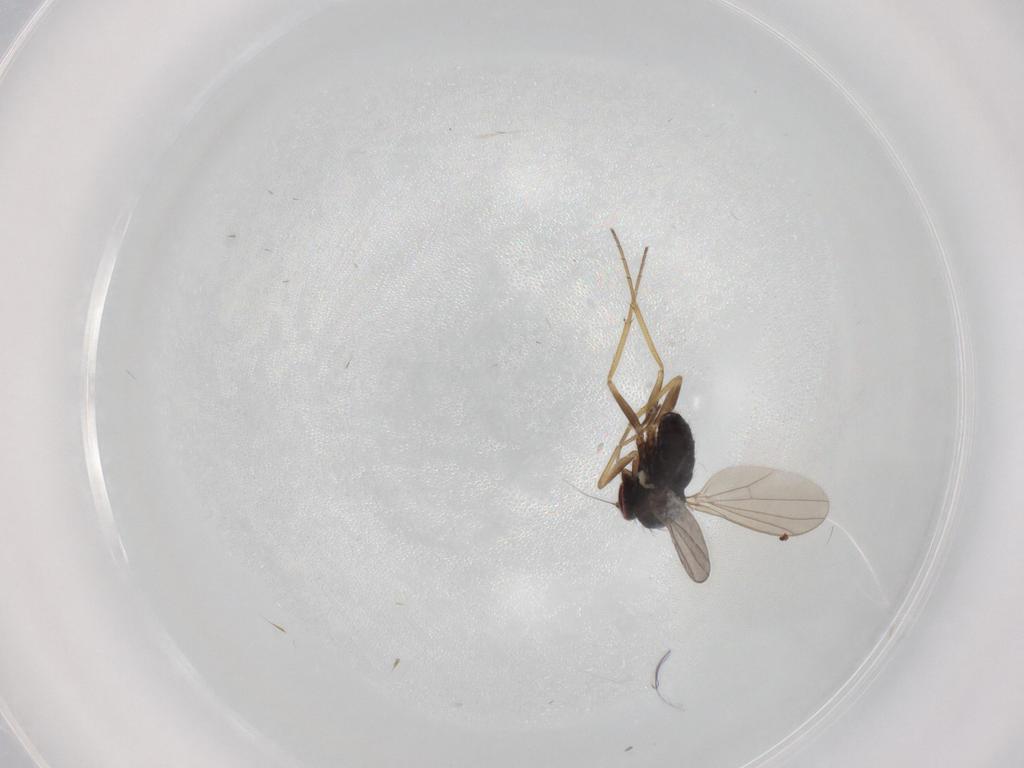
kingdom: Animalia
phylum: Arthropoda
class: Insecta
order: Diptera
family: Dolichopodidae
